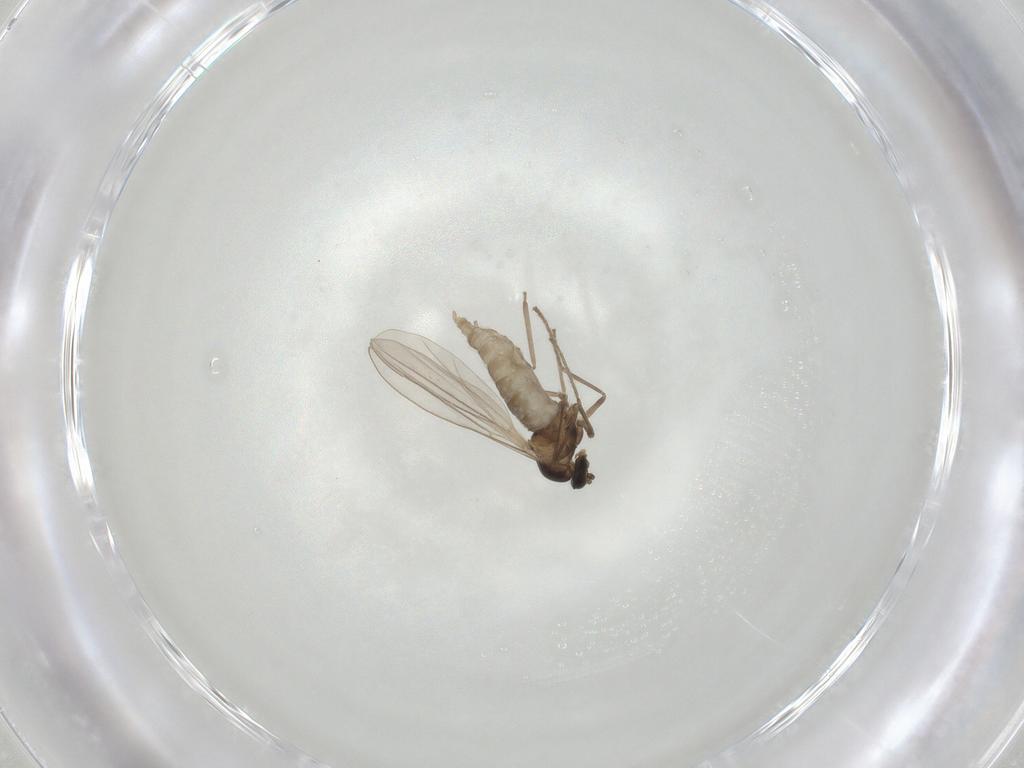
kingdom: Animalia
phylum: Arthropoda
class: Insecta
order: Diptera
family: Cecidomyiidae
